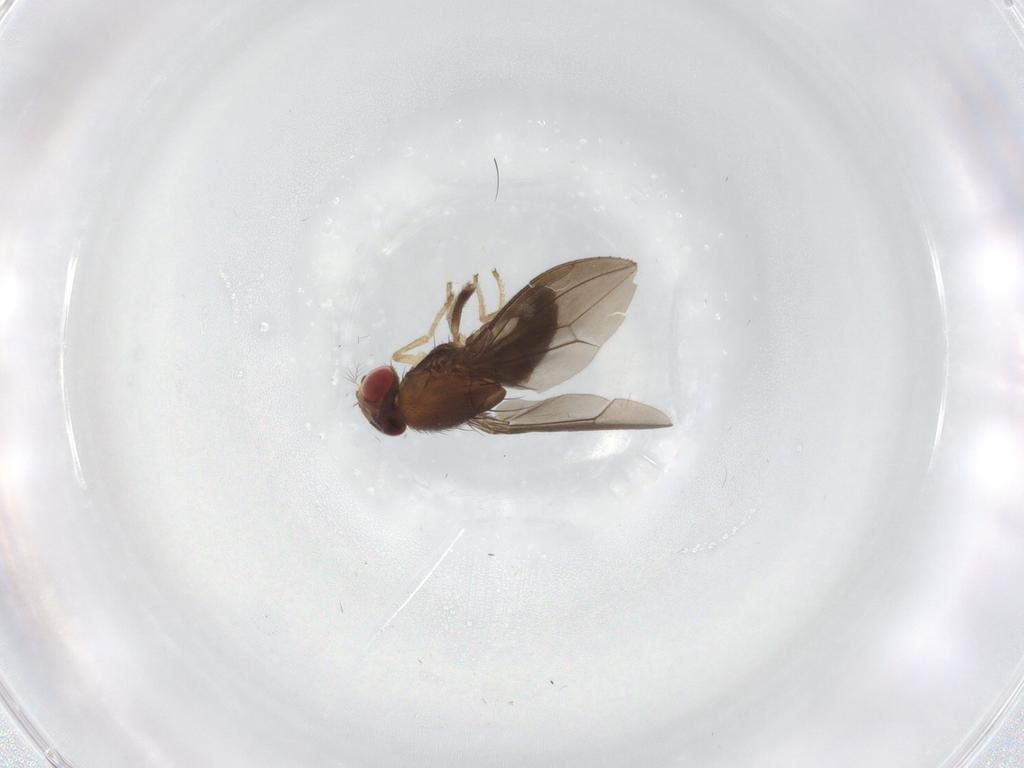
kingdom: Animalia
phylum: Arthropoda
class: Insecta
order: Diptera
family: Drosophilidae
